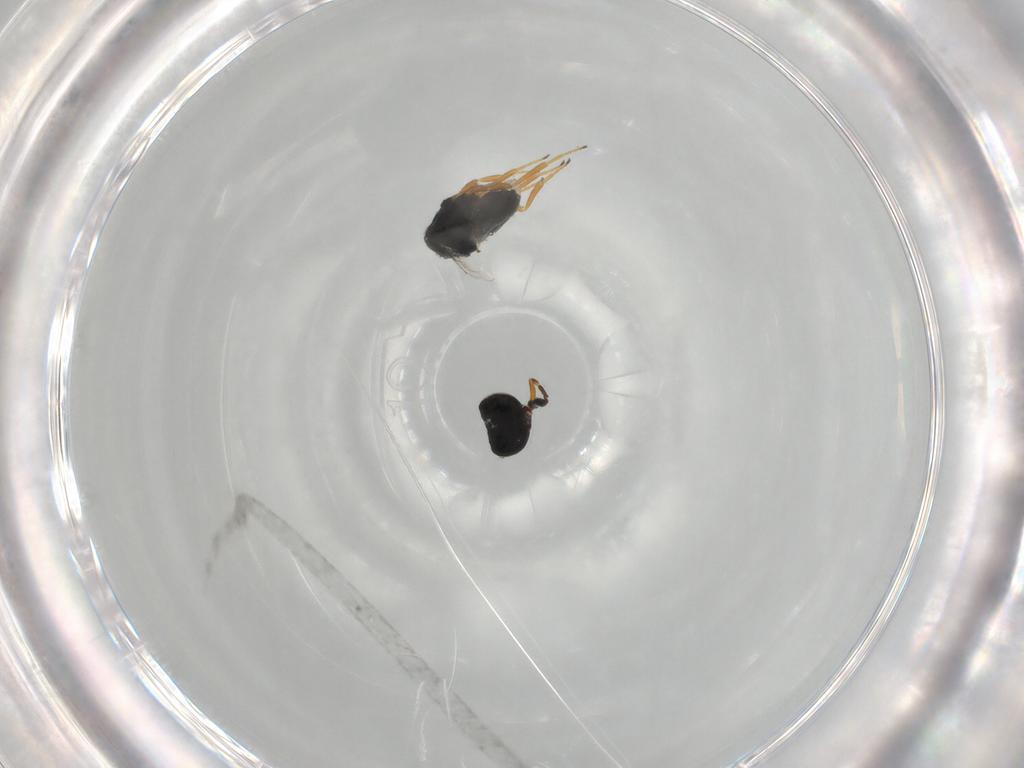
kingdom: Animalia
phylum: Arthropoda
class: Insecta
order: Hymenoptera
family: Scelionidae
